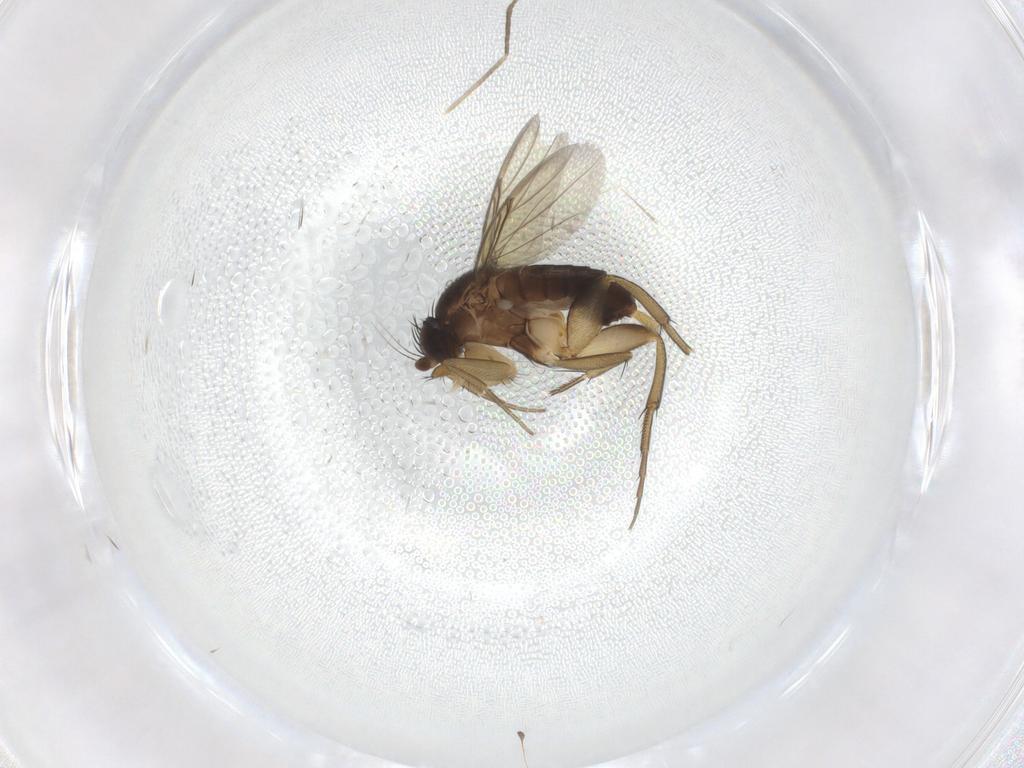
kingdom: Animalia
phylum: Arthropoda
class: Insecta
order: Diptera
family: Phoridae
